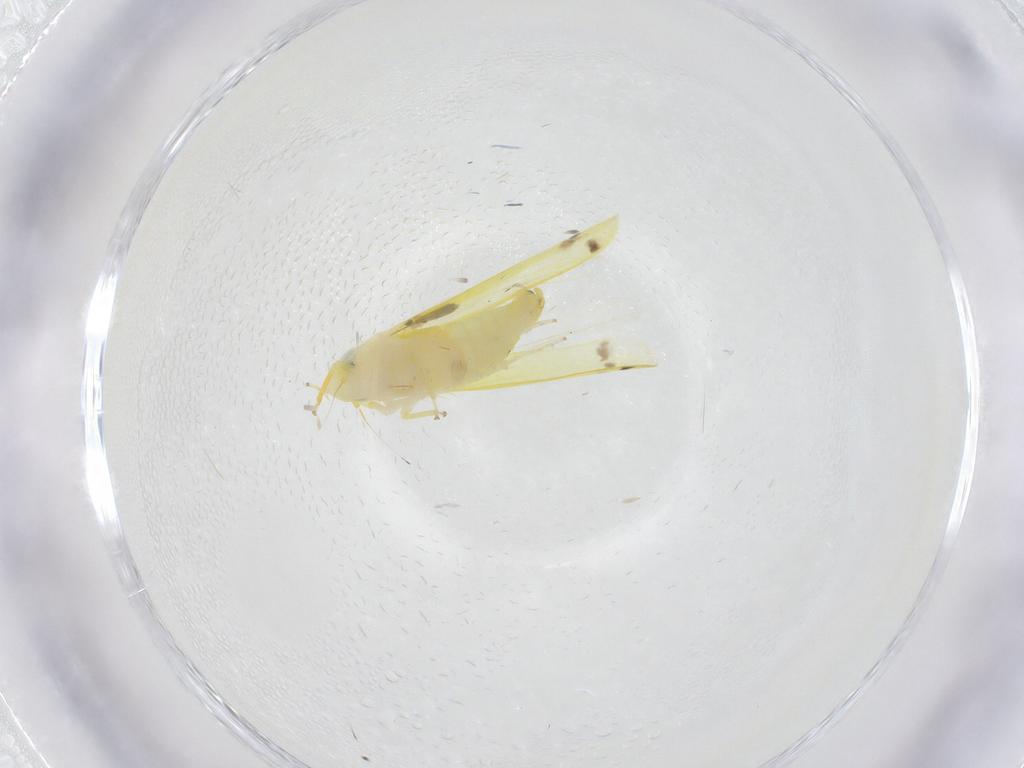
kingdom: Animalia
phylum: Arthropoda
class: Insecta
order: Hemiptera
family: Cicadellidae
